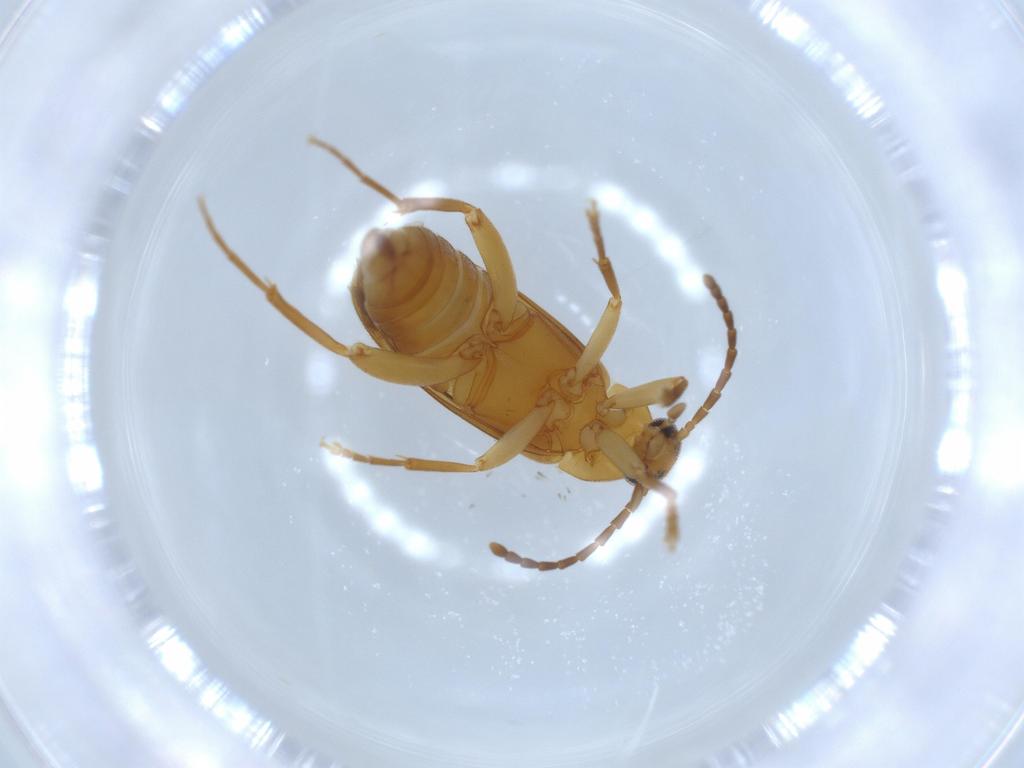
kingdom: Animalia
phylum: Arthropoda
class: Insecta
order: Coleoptera
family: Scraptiidae
